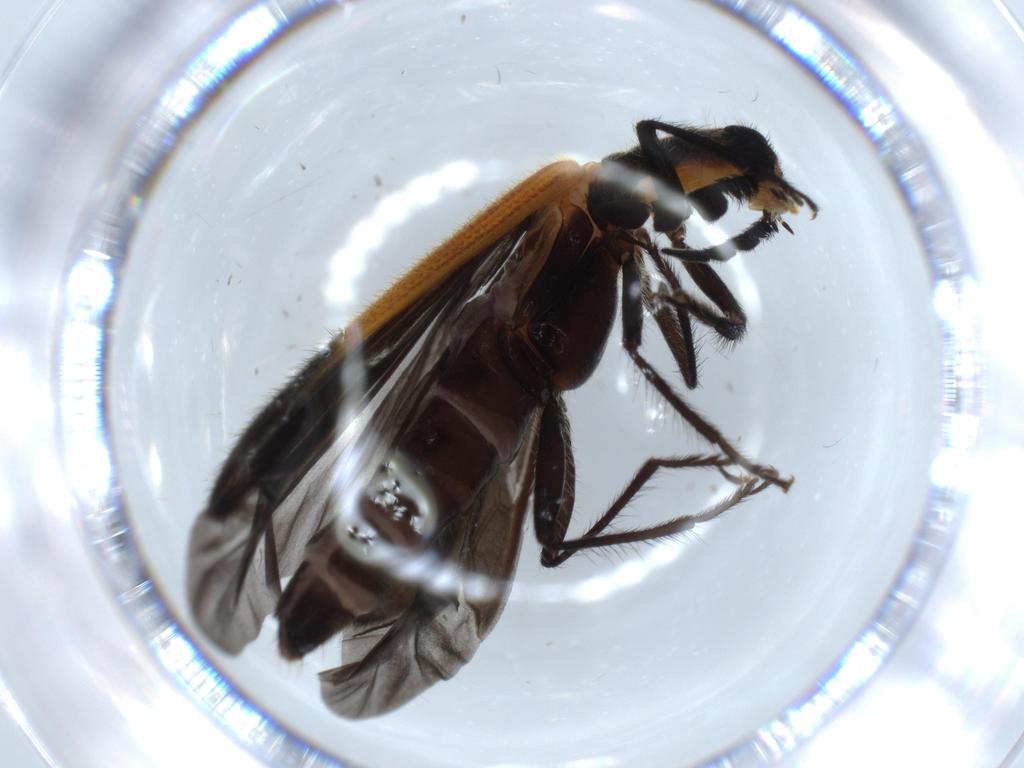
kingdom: Animalia
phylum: Arthropoda
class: Insecta
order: Coleoptera
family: Cleridae
